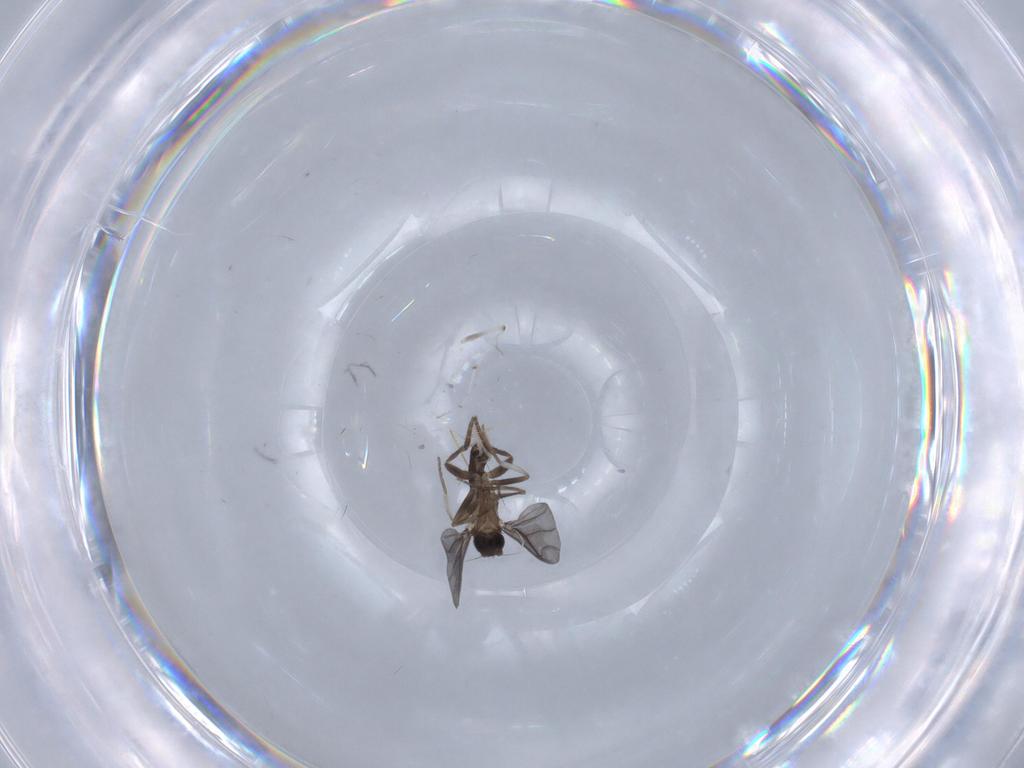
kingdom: Animalia
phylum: Arthropoda
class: Insecta
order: Diptera
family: Chironomidae
